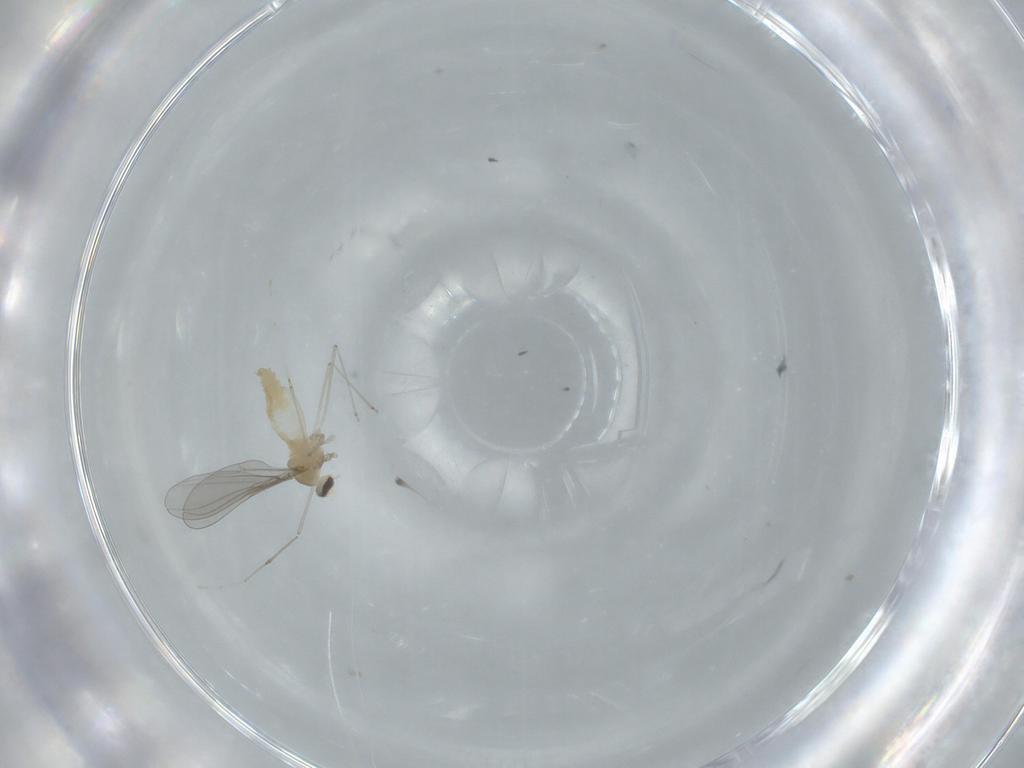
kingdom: Animalia
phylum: Arthropoda
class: Insecta
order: Diptera
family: Cecidomyiidae
